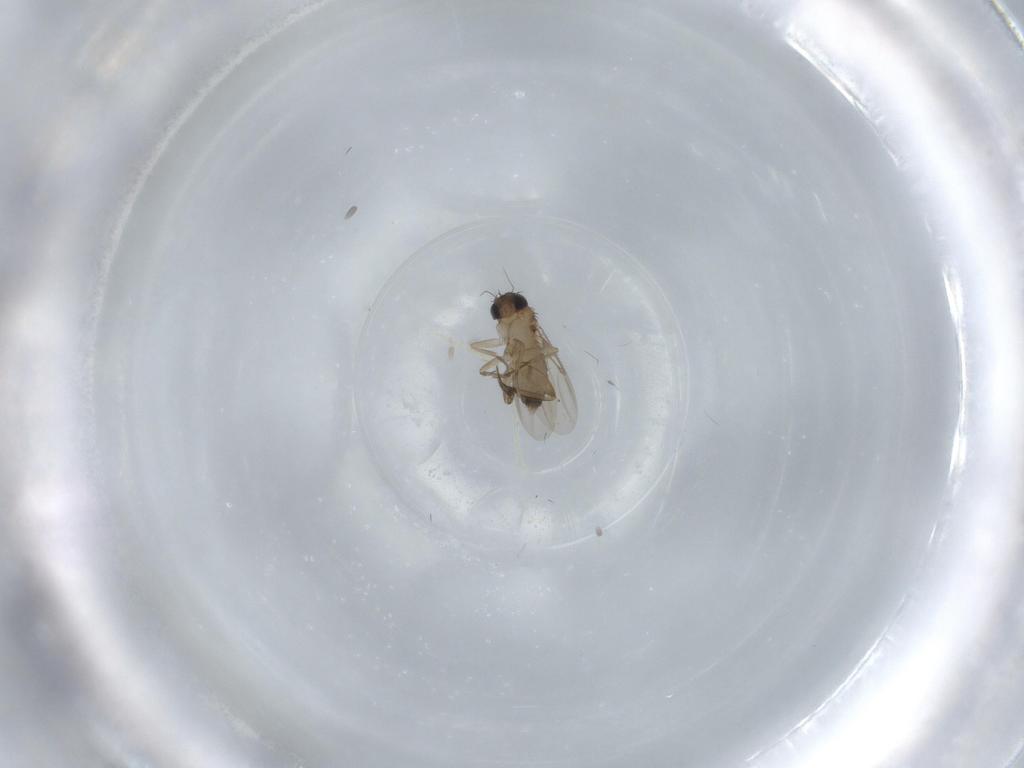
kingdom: Animalia
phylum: Arthropoda
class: Insecta
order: Diptera
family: Phoridae
